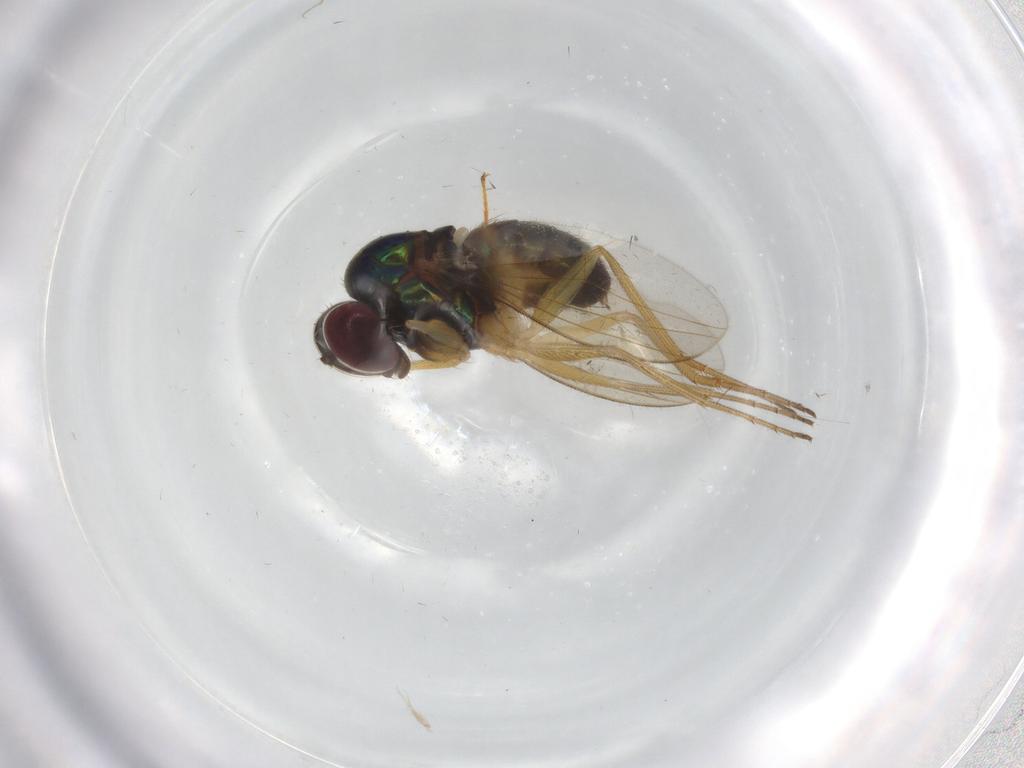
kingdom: Animalia
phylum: Arthropoda
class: Insecta
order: Diptera
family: Dolichopodidae
